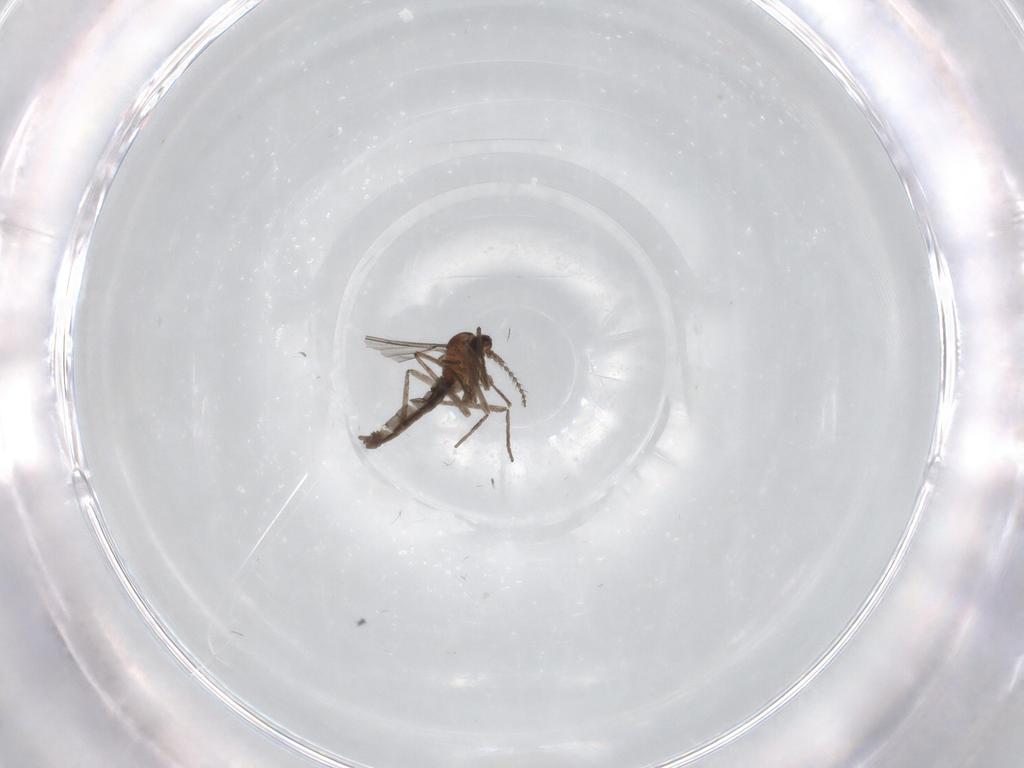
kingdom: Animalia
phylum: Arthropoda
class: Insecta
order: Diptera
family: Cecidomyiidae
